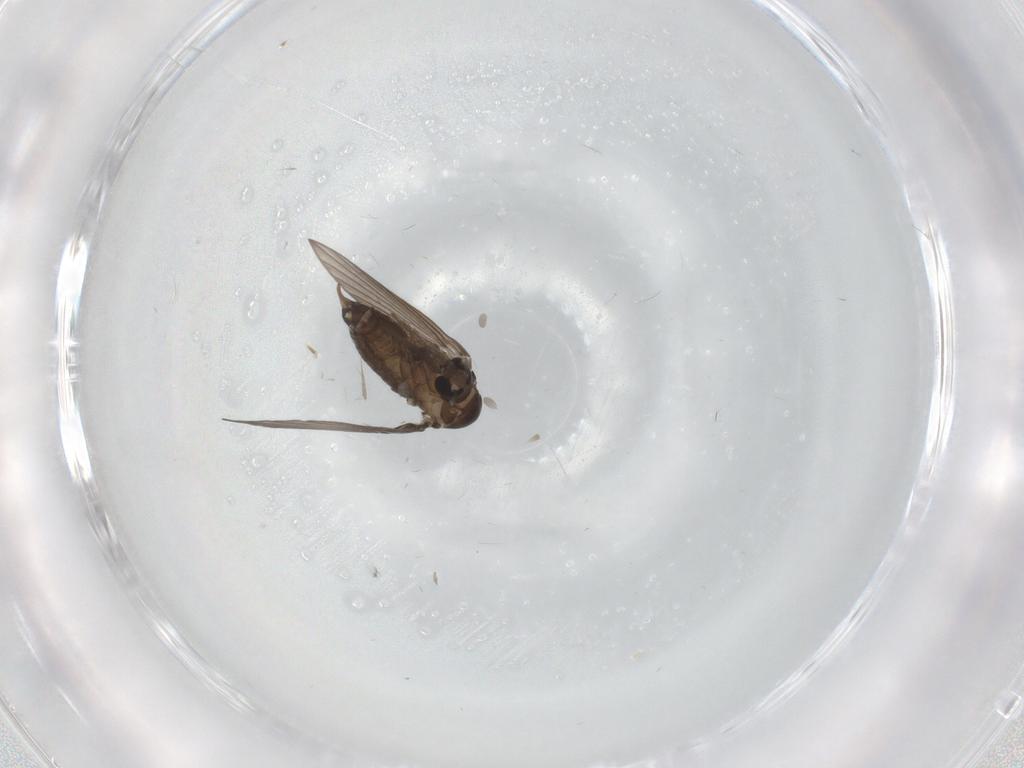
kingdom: Animalia
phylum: Arthropoda
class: Insecta
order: Diptera
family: Psychodidae
